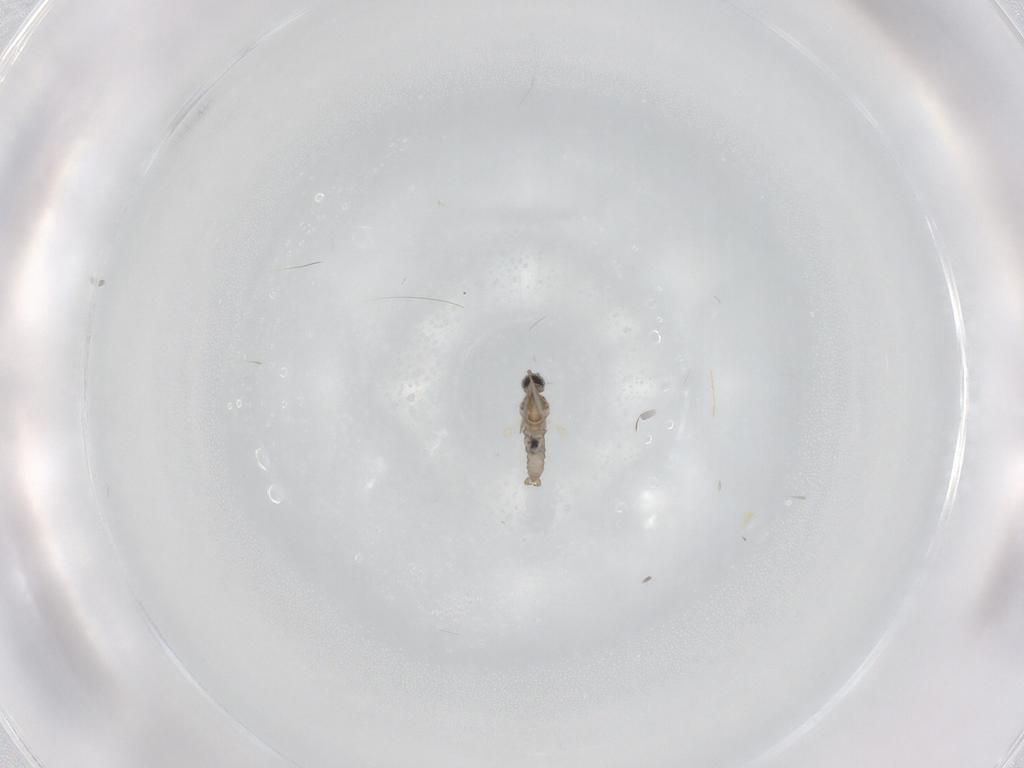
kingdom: Animalia
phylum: Arthropoda
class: Insecta
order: Diptera
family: Cecidomyiidae
